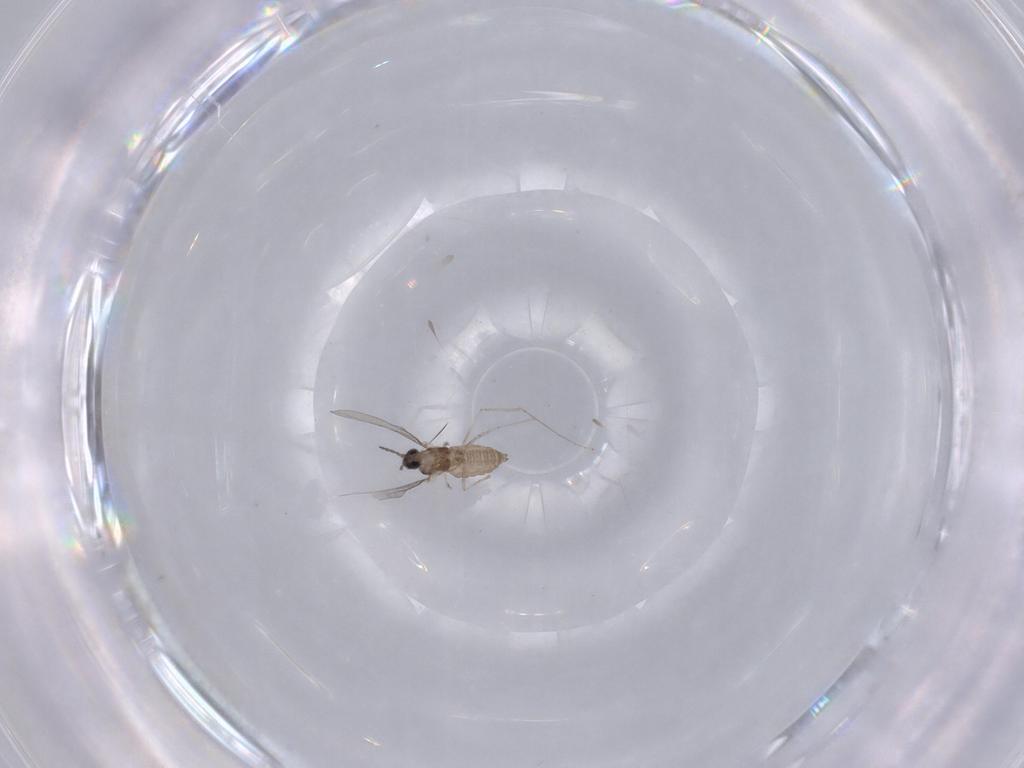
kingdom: Animalia
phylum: Arthropoda
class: Insecta
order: Diptera
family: Cecidomyiidae
